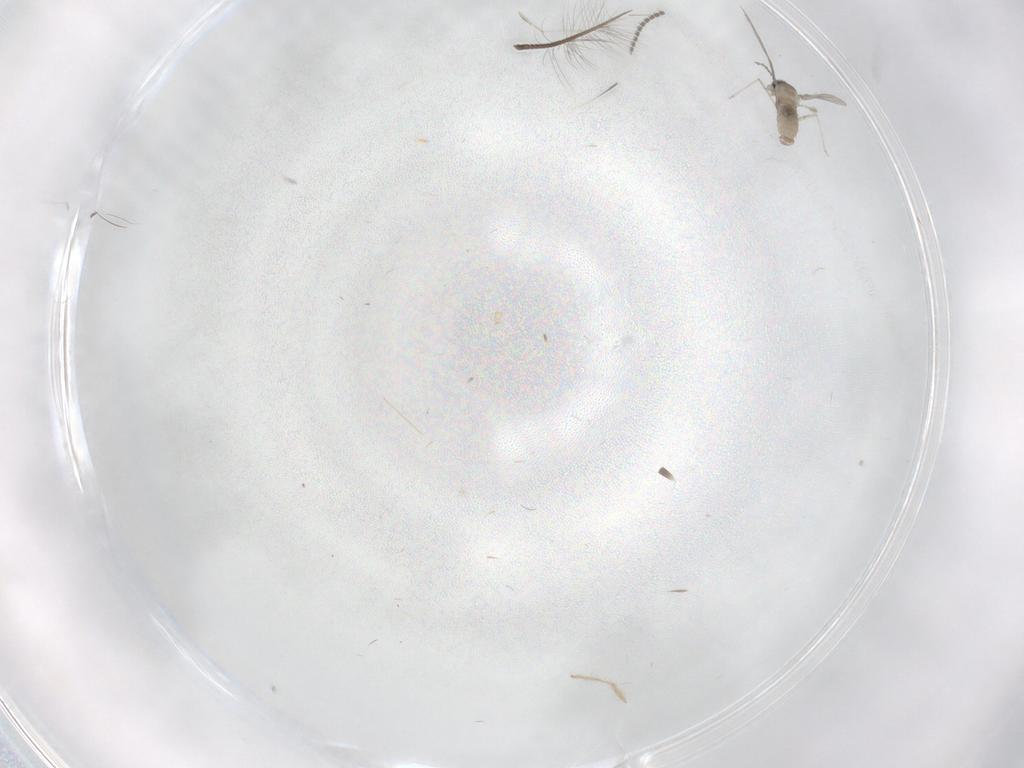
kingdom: Animalia
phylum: Arthropoda
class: Insecta
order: Diptera
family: Cecidomyiidae
